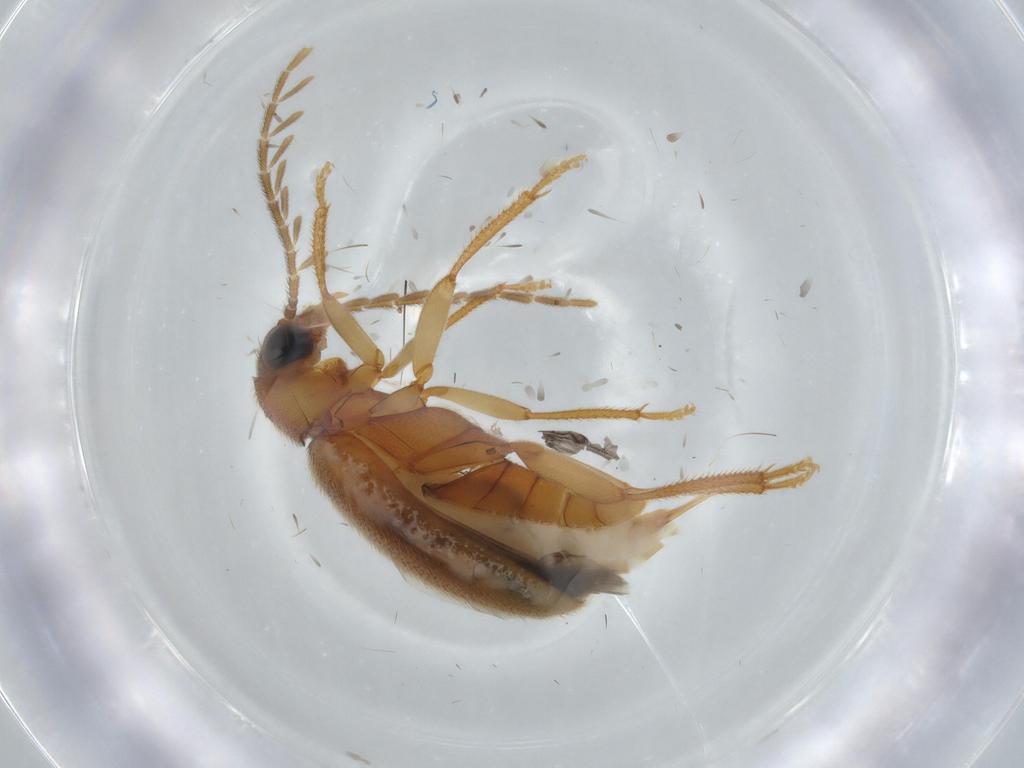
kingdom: Animalia
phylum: Arthropoda
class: Insecta
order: Coleoptera
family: Ptilodactylidae
